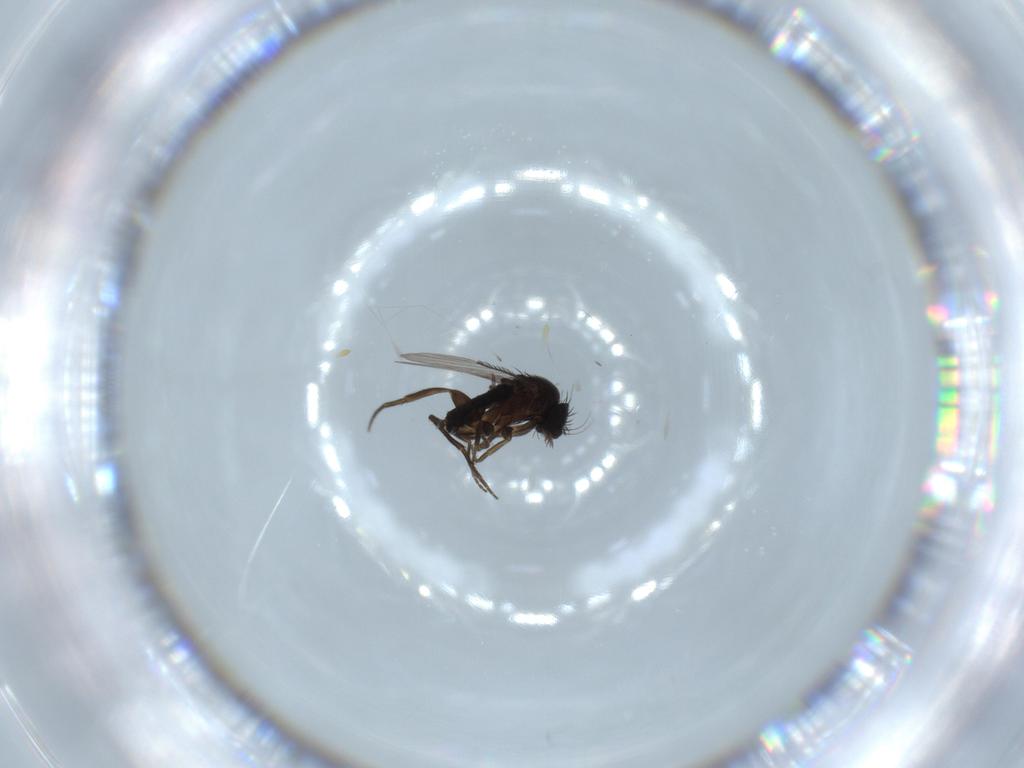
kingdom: Animalia
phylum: Arthropoda
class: Insecta
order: Diptera
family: Phoridae
